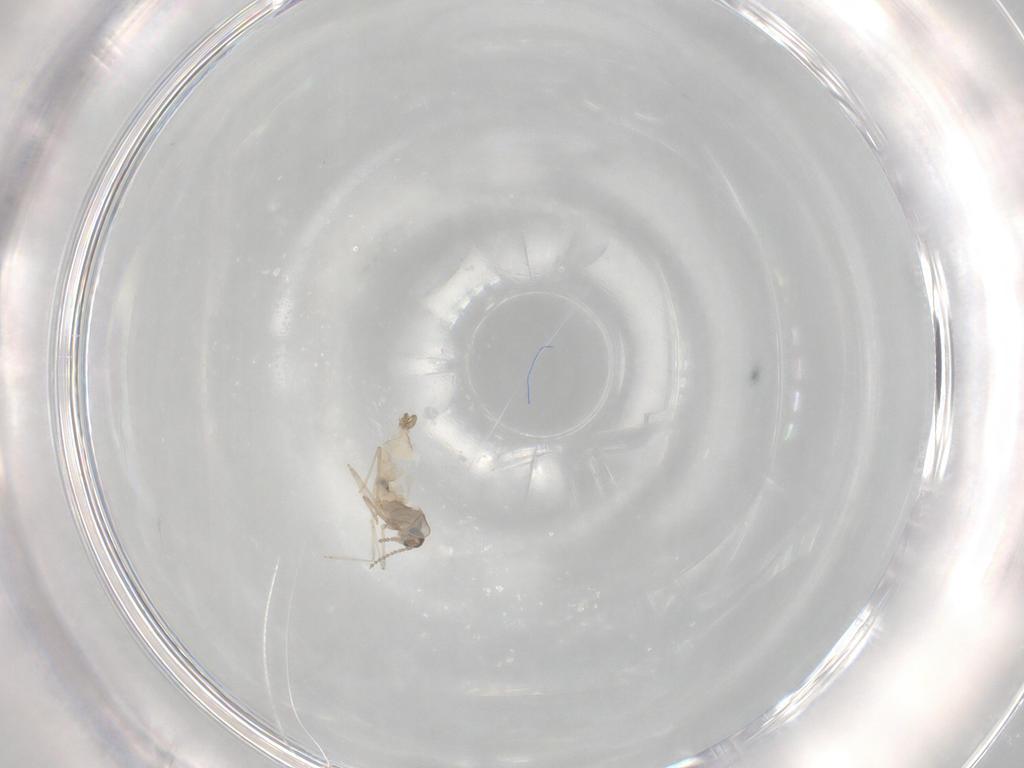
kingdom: Animalia
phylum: Arthropoda
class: Insecta
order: Diptera
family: Cecidomyiidae
